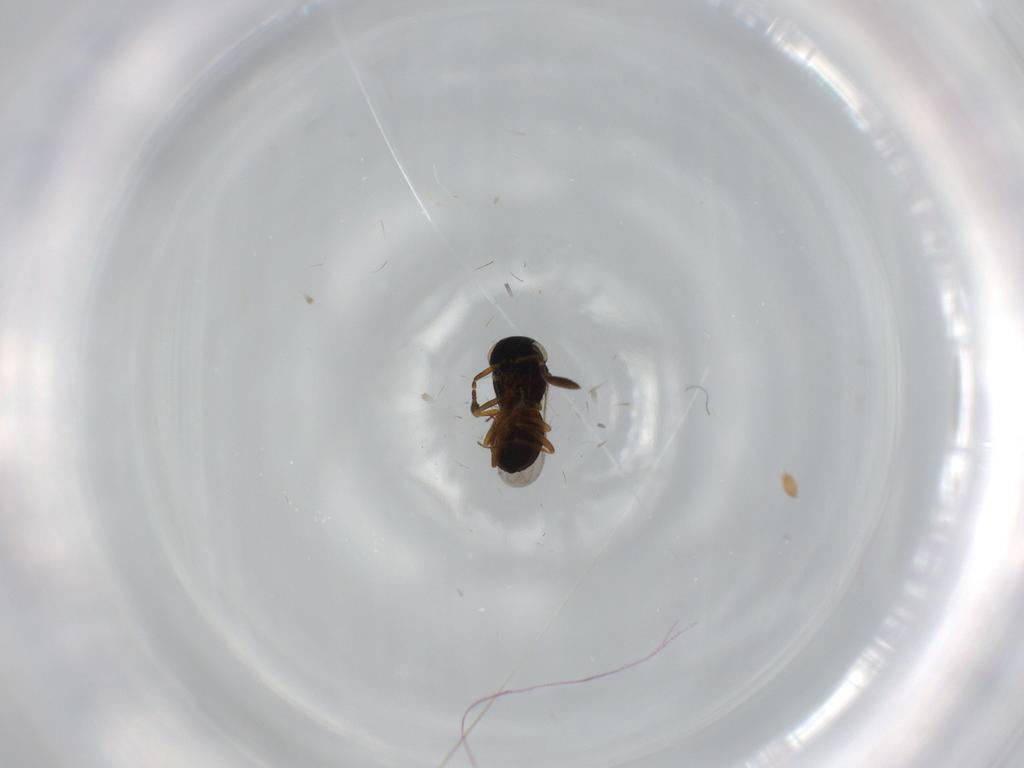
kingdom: Animalia
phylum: Arthropoda
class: Insecta
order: Coleoptera
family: Curculionidae
